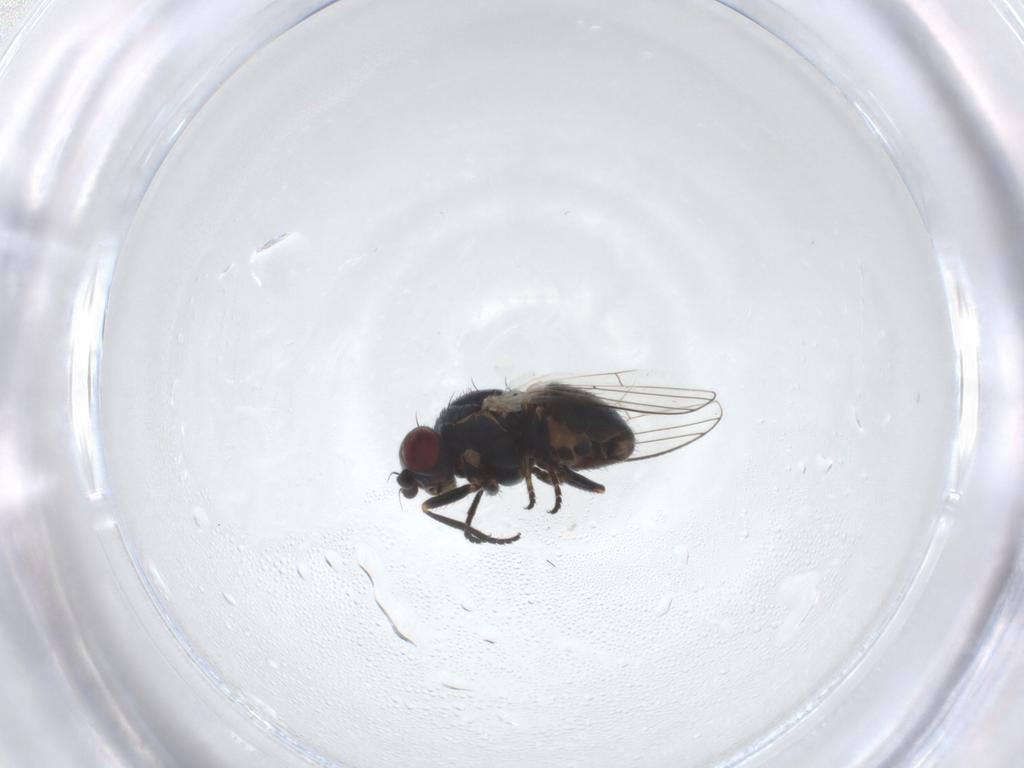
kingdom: Animalia
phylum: Arthropoda
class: Insecta
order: Diptera
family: Chamaemyiidae
